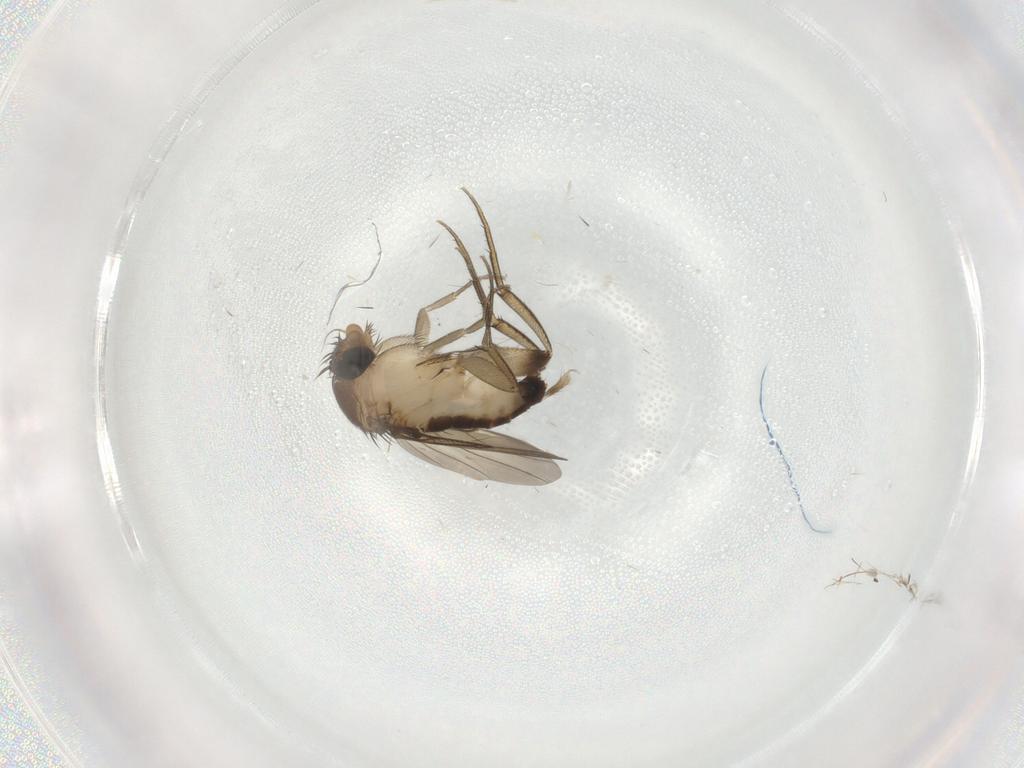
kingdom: Animalia
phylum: Arthropoda
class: Insecta
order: Diptera
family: Phoridae
